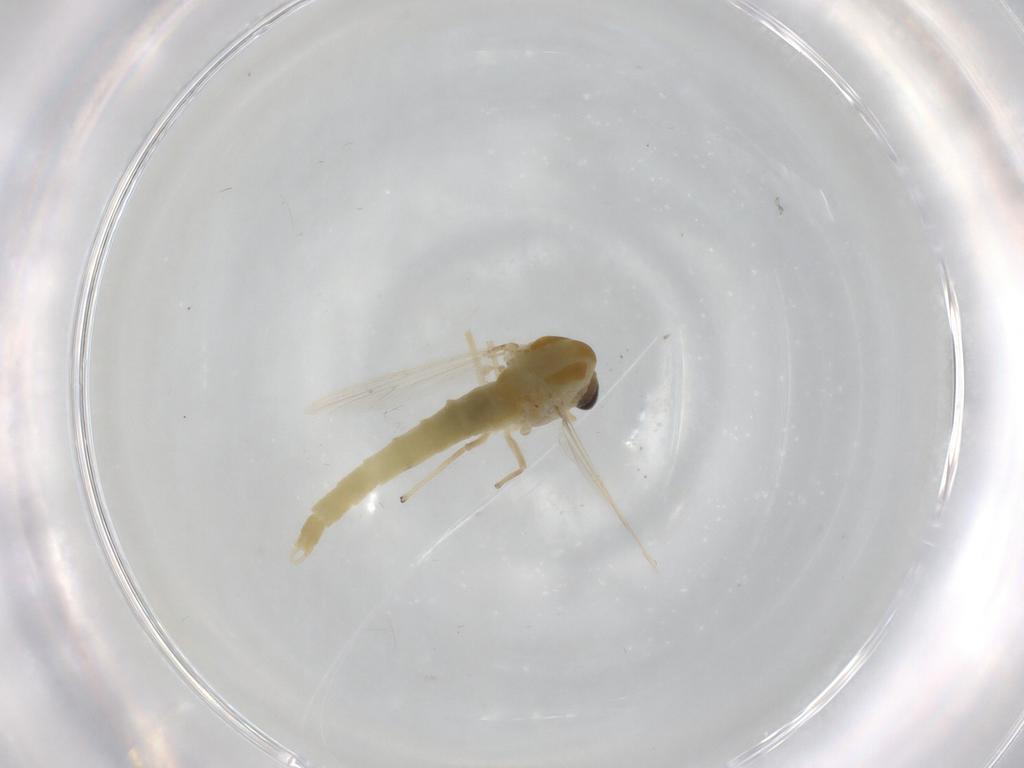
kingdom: Animalia
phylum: Arthropoda
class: Insecta
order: Diptera
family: Chironomidae
